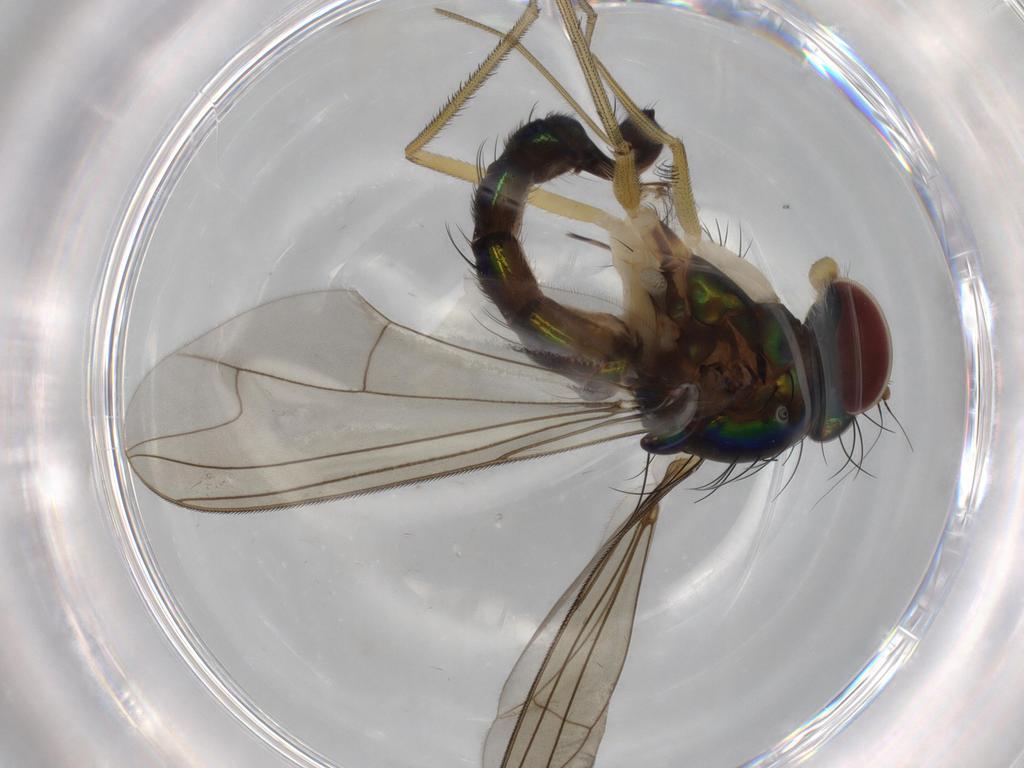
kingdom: Animalia
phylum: Arthropoda
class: Insecta
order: Diptera
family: Dolichopodidae
